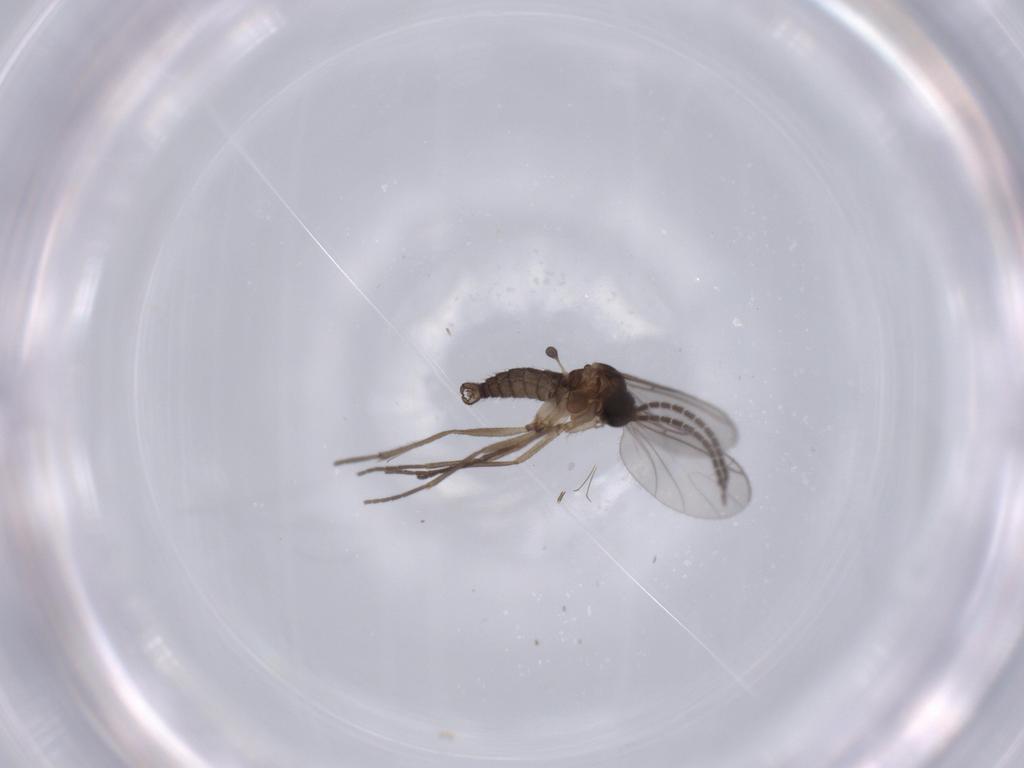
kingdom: Animalia
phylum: Arthropoda
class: Insecta
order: Diptera
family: Sciaridae
